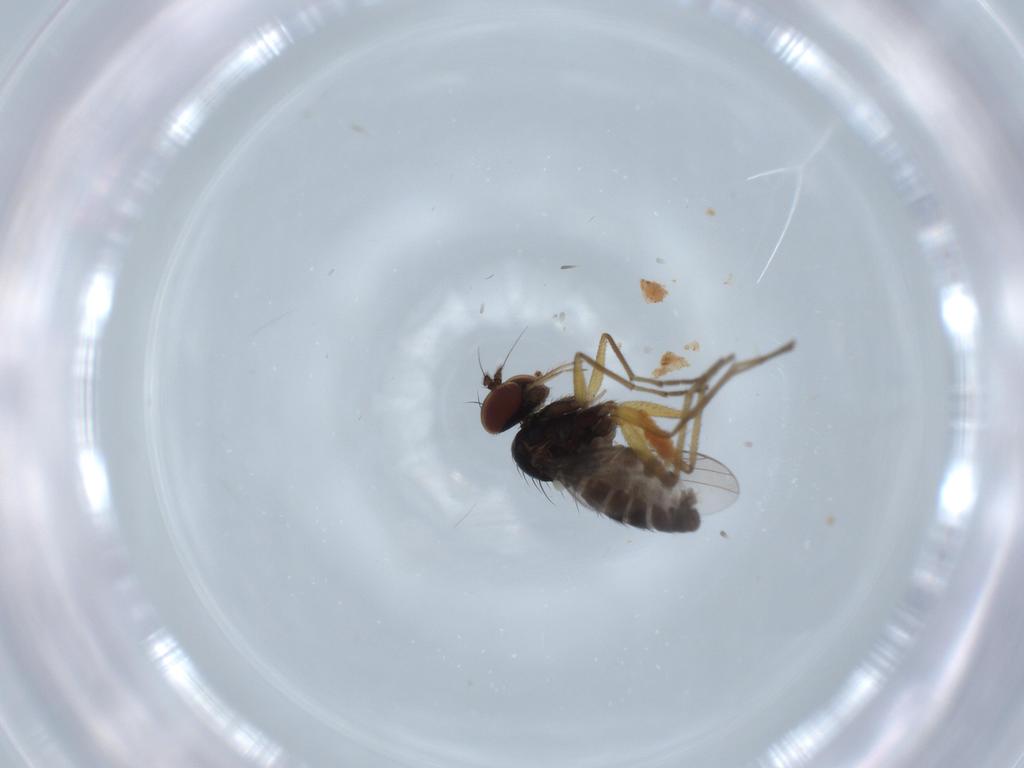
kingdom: Animalia
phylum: Arthropoda
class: Insecta
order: Diptera
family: Dolichopodidae
